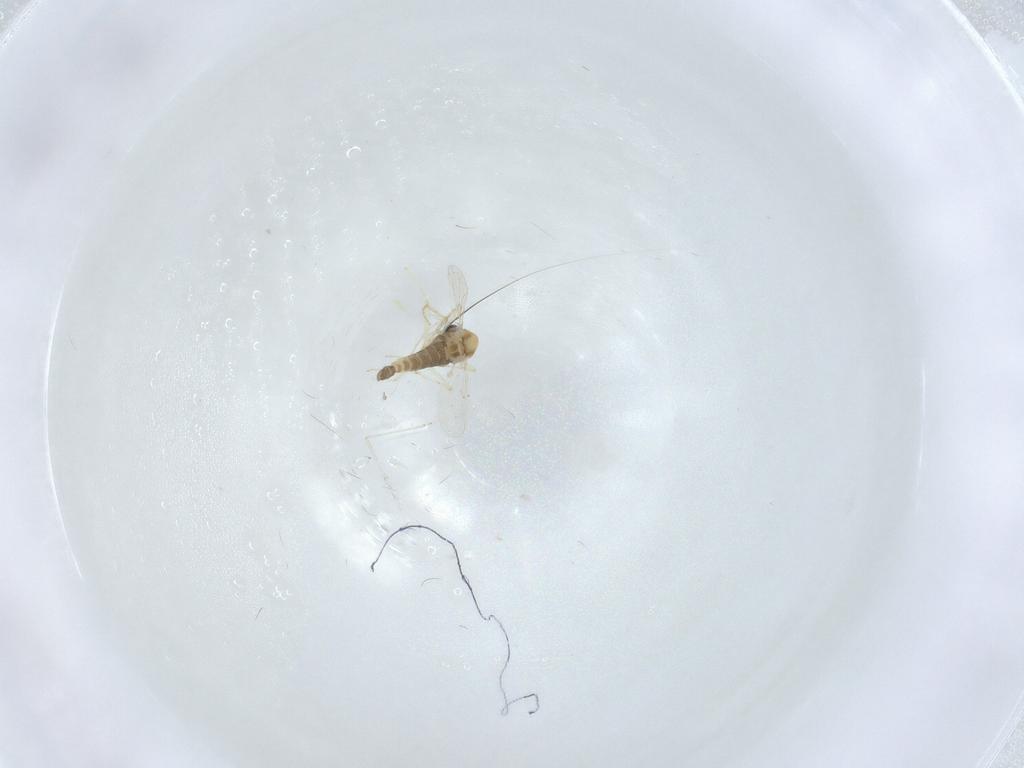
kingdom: Animalia
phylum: Arthropoda
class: Insecta
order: Diptera
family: Chironomidae
